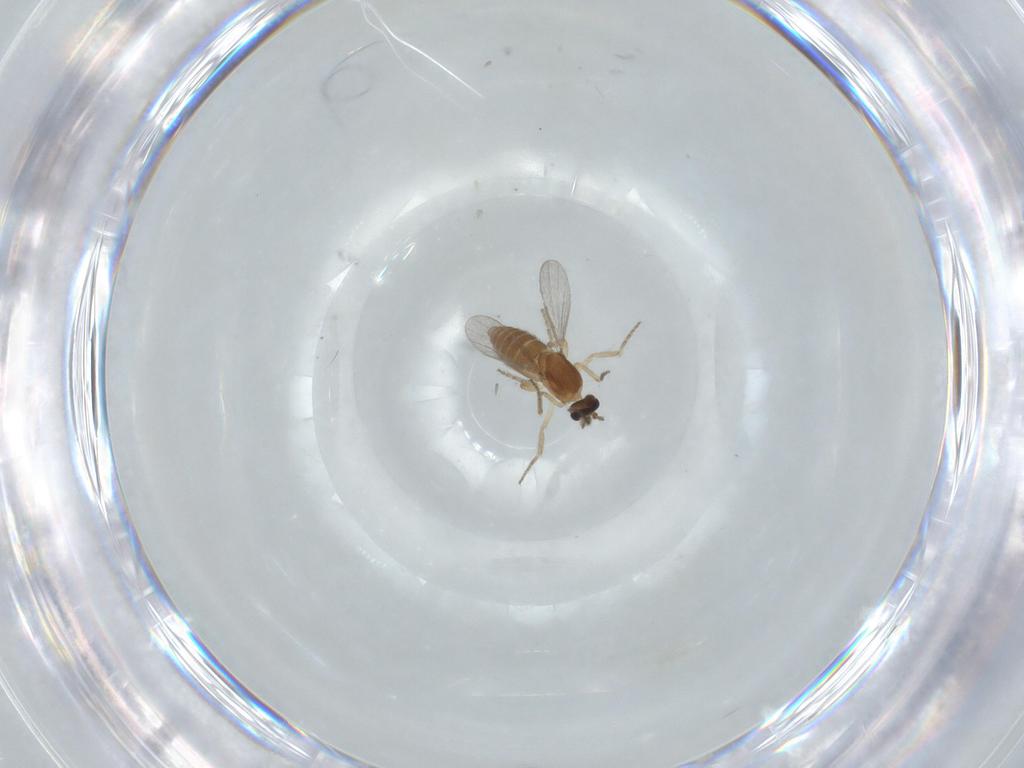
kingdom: Animalia
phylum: Arthropoda
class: Insecta
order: Diptera
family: Ceratopogonidae
